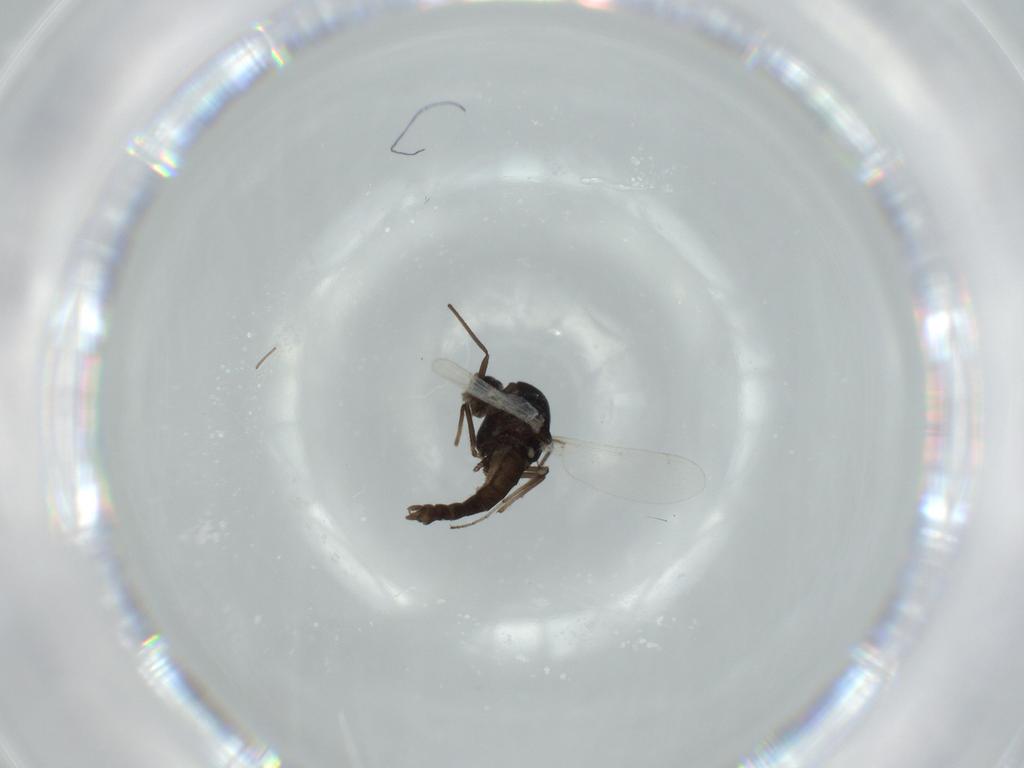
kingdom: Animalia
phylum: Arthropoda
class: Insecta
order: Diptera
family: Chironomidae
